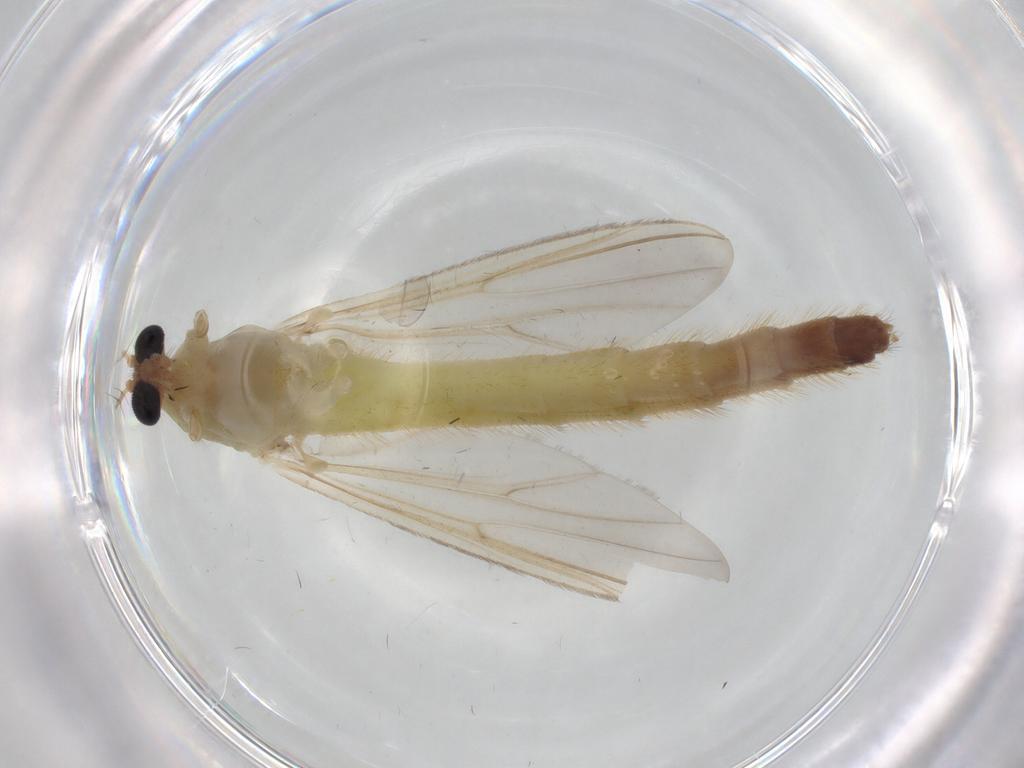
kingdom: Animalia
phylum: Arthropoda
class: Insecta
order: Diptera
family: Chironomidae
